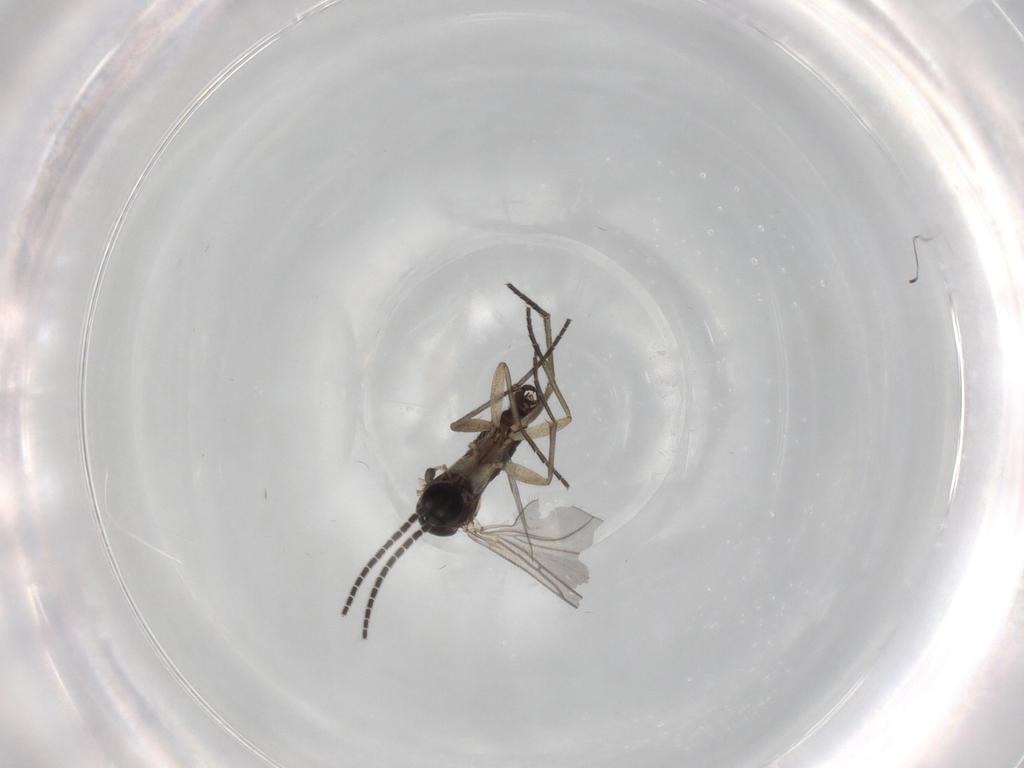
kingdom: Animalia
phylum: Arthropoda
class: Insecta
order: Diptera
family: Sciaridae
